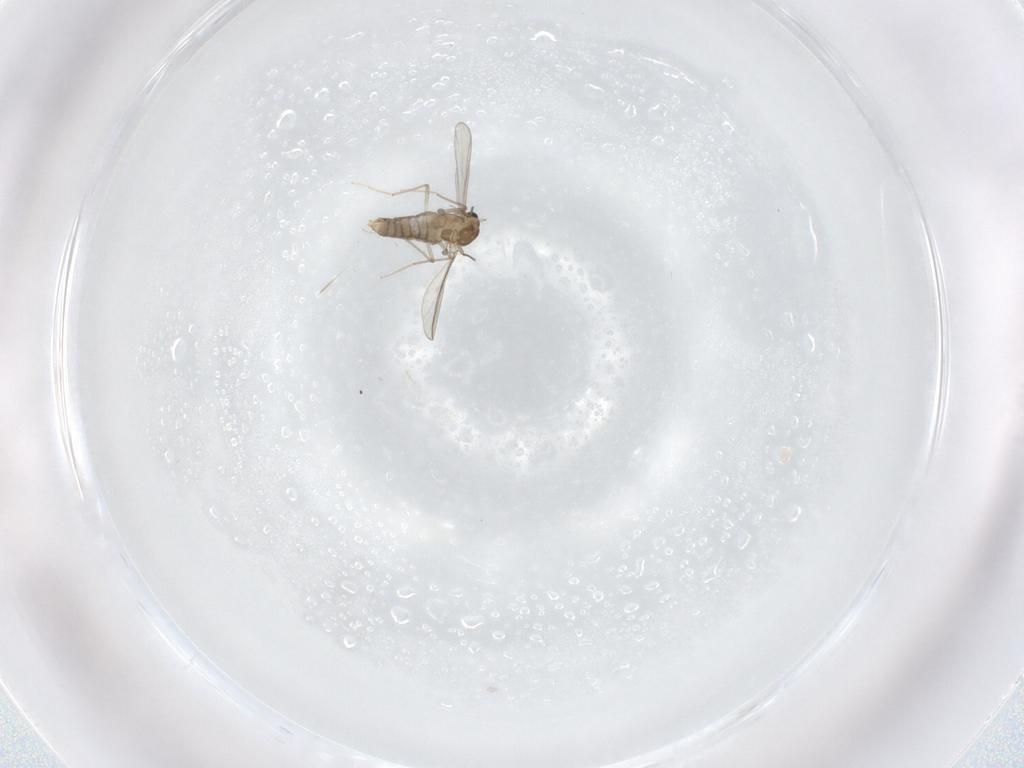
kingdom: Animalia
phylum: Arthropoda
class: Insecta
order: Diptera
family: Chironomidae
